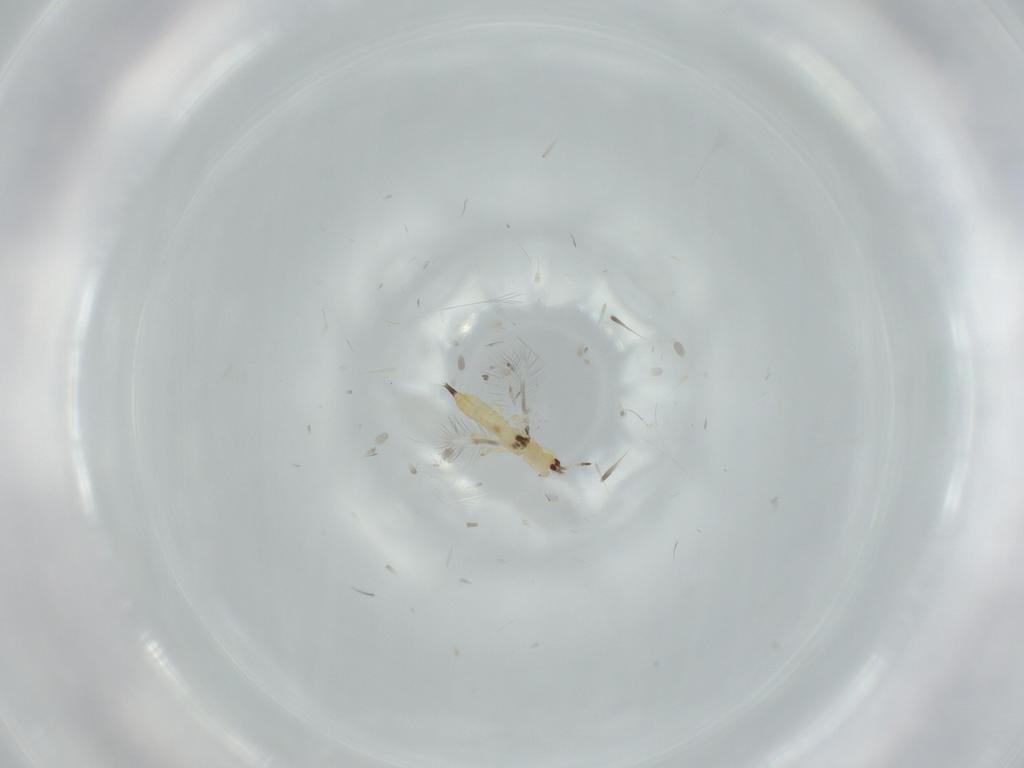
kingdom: Animalia
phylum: Arthropoda
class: Insecta
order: Thysanoptera
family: Phlaeothripidae
